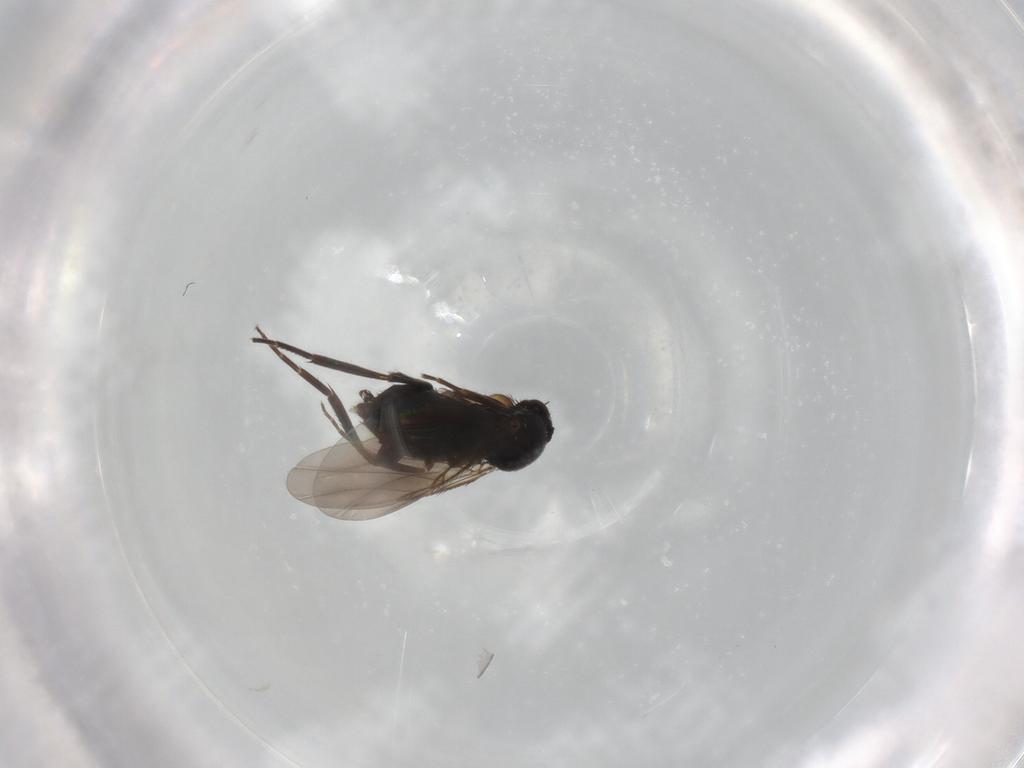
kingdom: Animalia
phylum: Arthropoda
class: Insecta
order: Diptera
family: Phoridae
